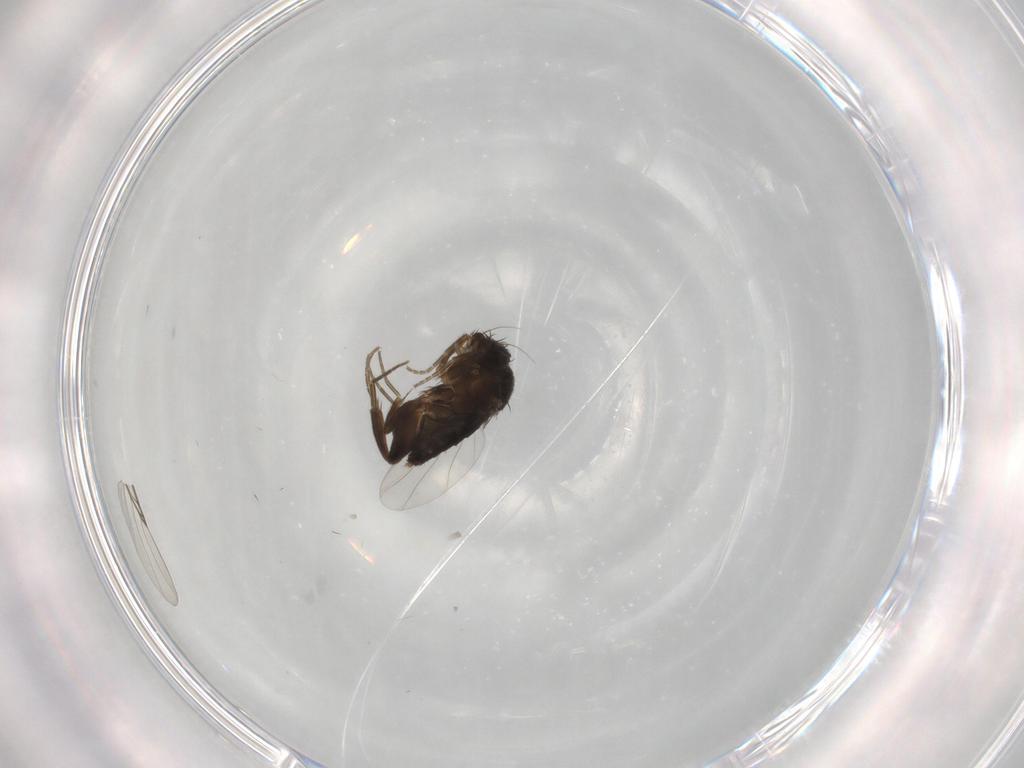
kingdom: Animalia
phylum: Arthropoda
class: Insecta
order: Diptera
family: Phoridae
